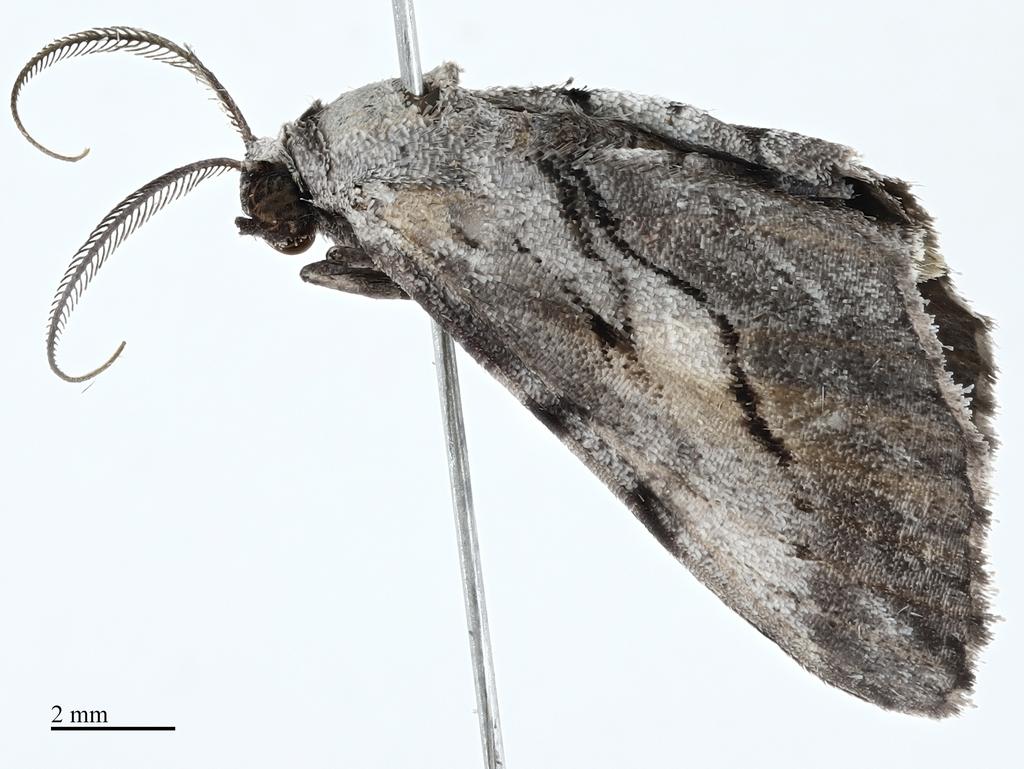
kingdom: Animalia
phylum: Arthropoda
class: Insecta
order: Lepidoptera
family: Geometridae
